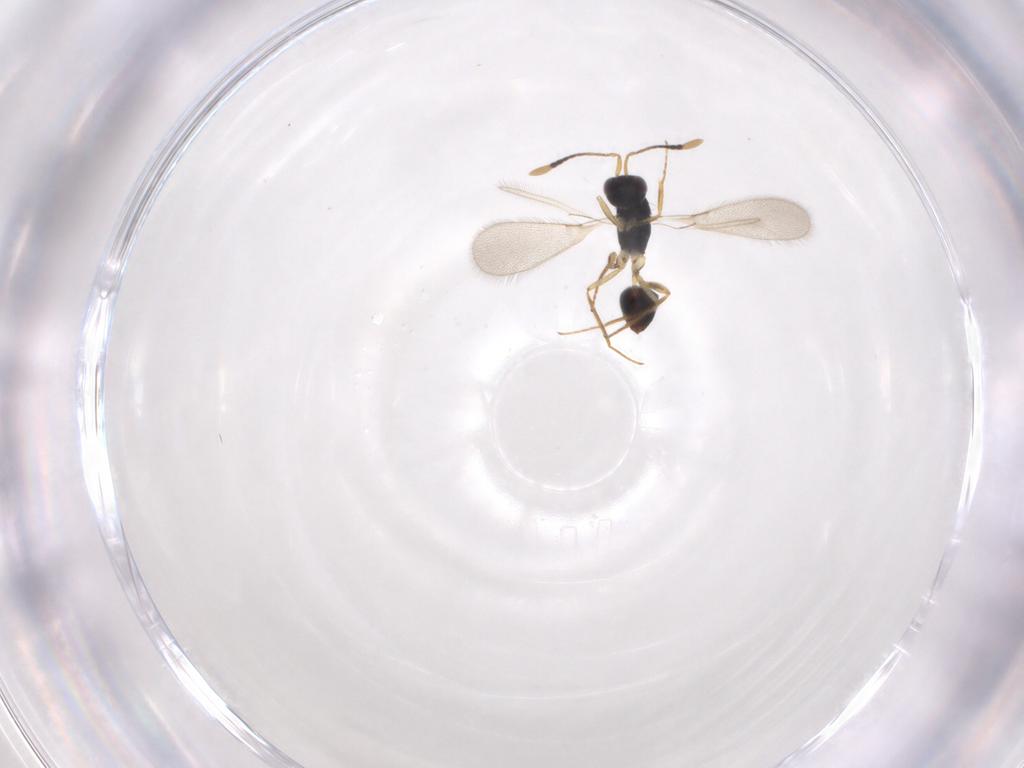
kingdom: Animalia
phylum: Arthropoda
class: Insecta
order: Hymenoptera
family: Mymaridae
